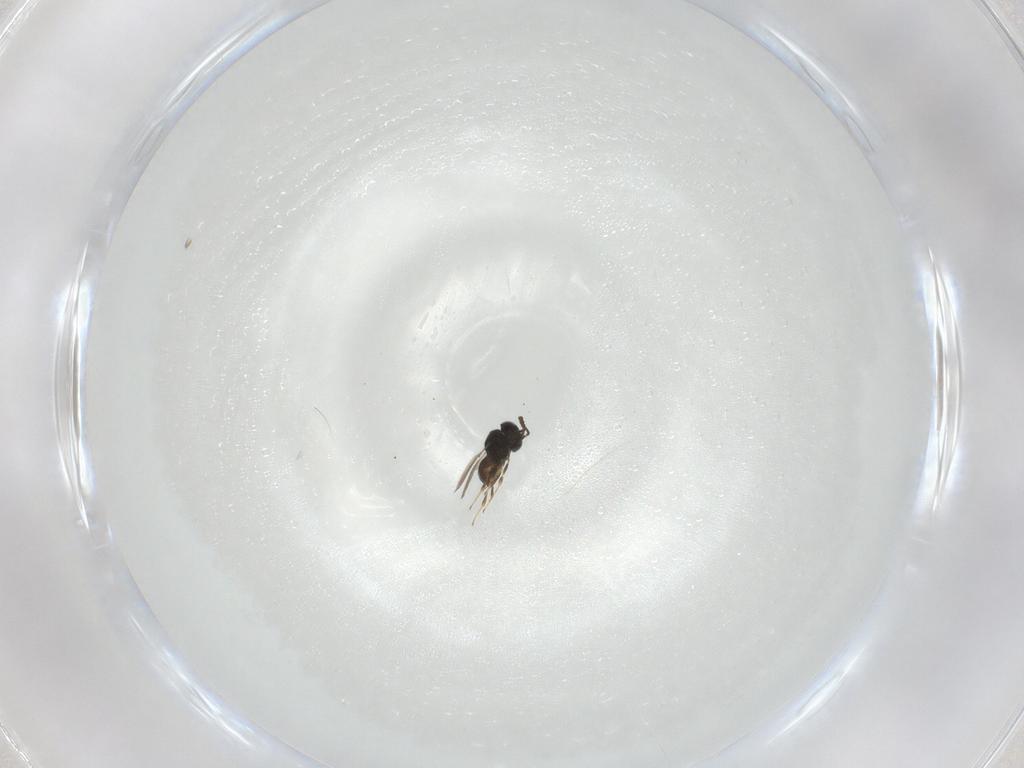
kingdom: Animalia
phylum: Arthropoda
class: Insecta
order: Hymenoptera
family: Scelionidae
